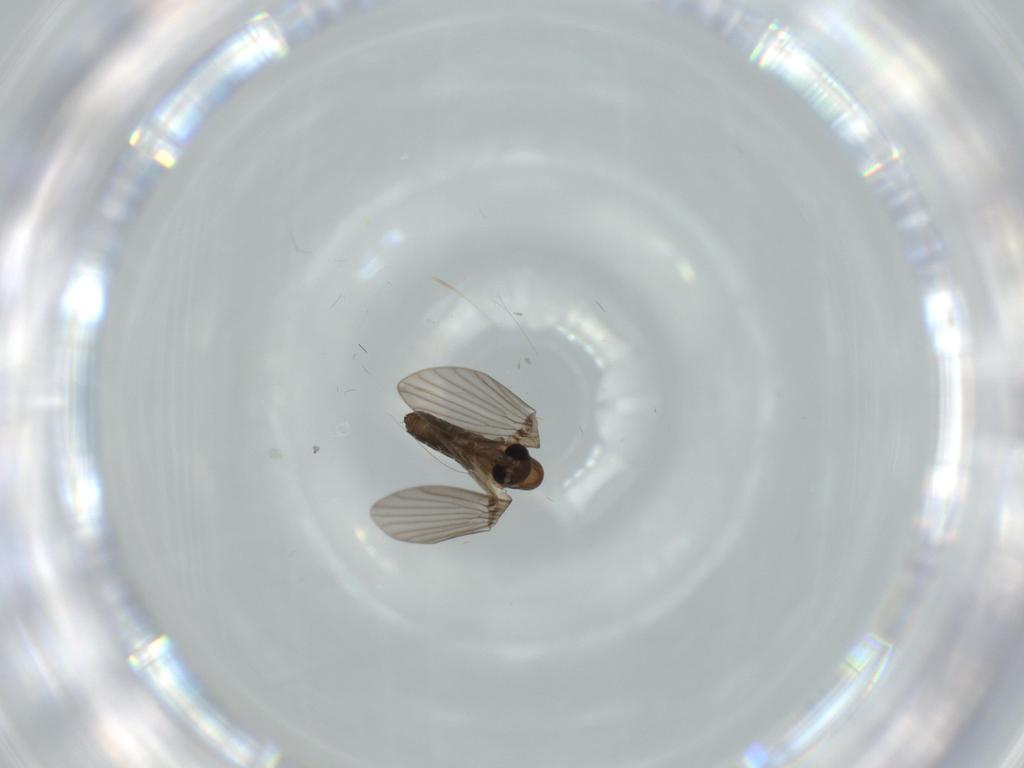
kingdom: Animalia
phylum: Arthropoda
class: Insecta
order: Diptera
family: Psychodidae
